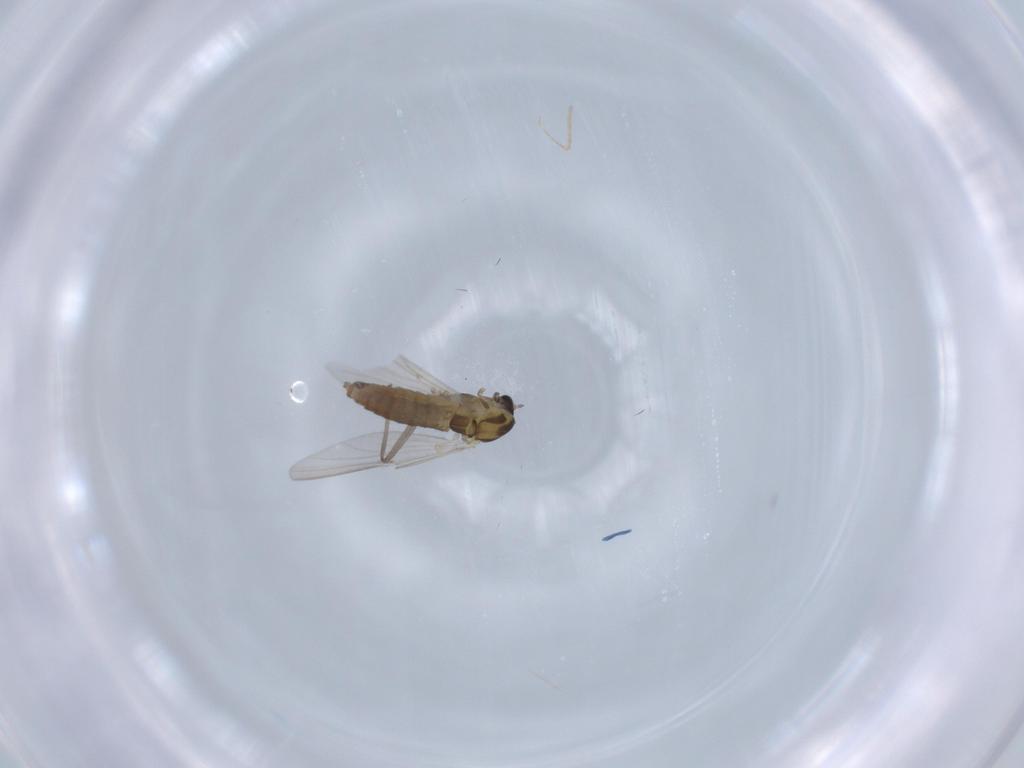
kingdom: Animalia
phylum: Arthropoda
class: Insecta
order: Diptera
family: Chironomidae
